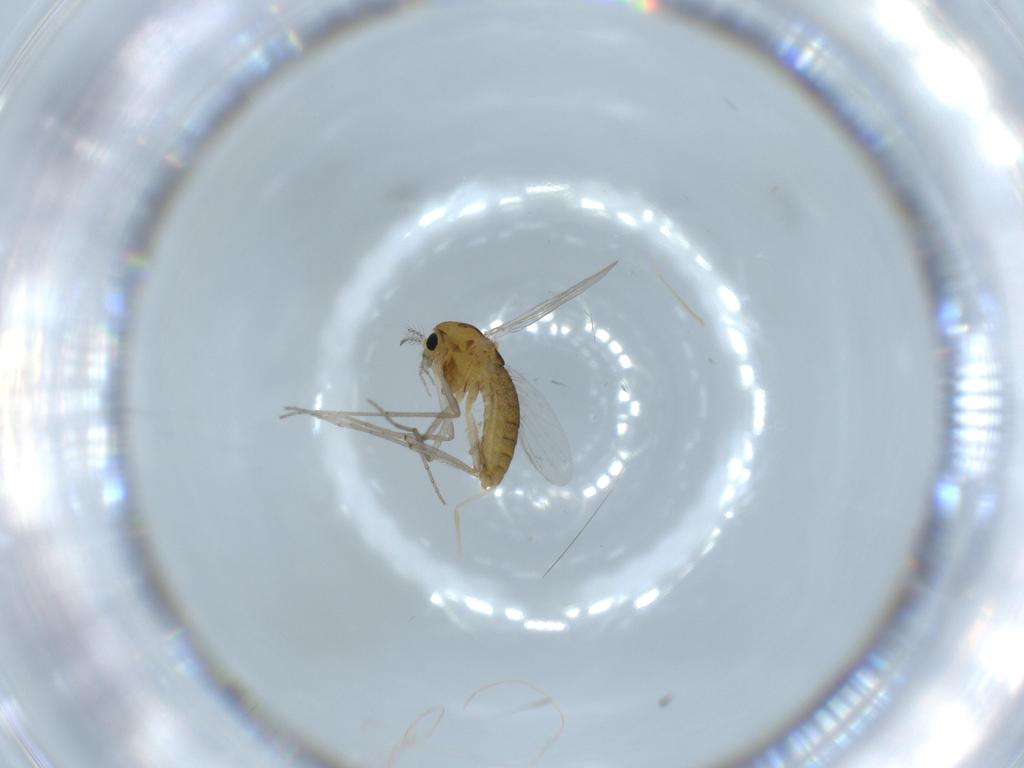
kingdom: Animalia
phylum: Arthropoda
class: Insecta
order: Diptera
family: Chironomidae
